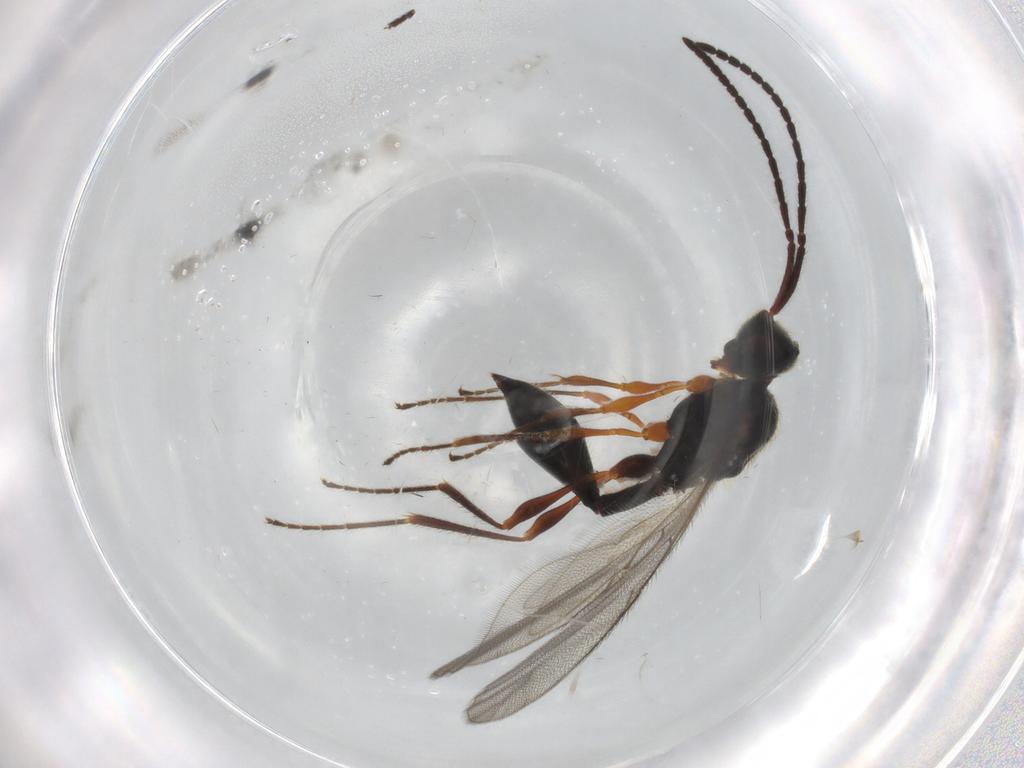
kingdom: Animalia
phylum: Arthropoda
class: Insecta
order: Hymenoptera
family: Diapriidae
